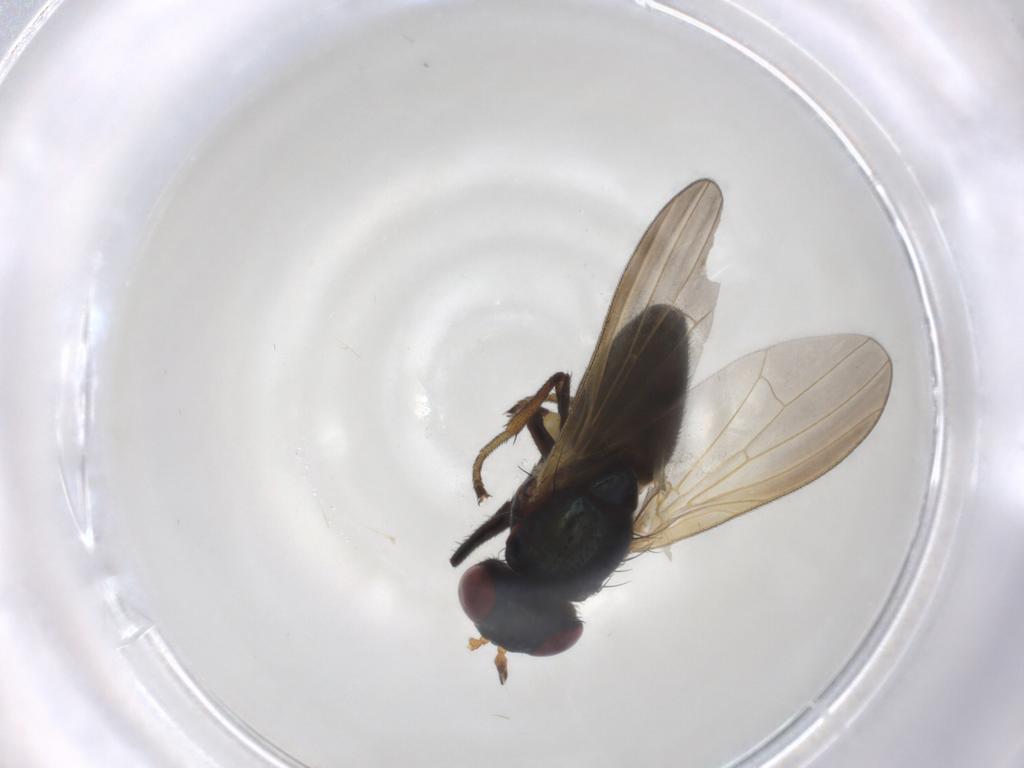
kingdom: Animalia
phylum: Arthropoda
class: Insecta
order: Diptera
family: Lauxaniidae
